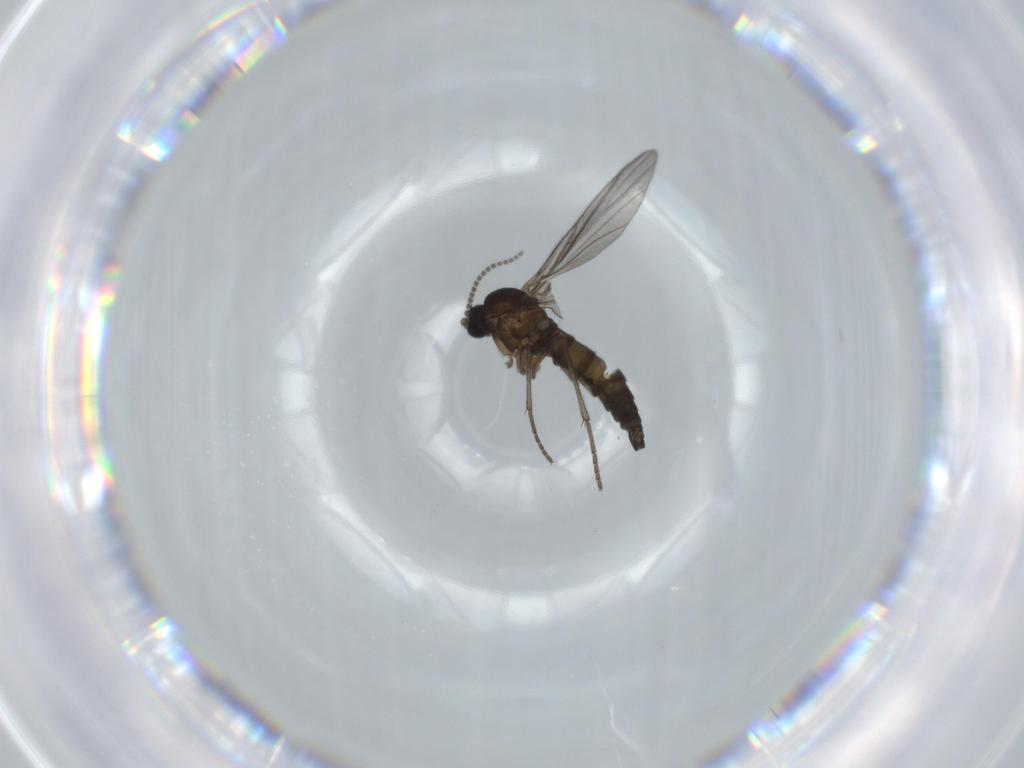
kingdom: Animalia
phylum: Arthropoda
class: Insecta
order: Diptera
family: Sciaridae
